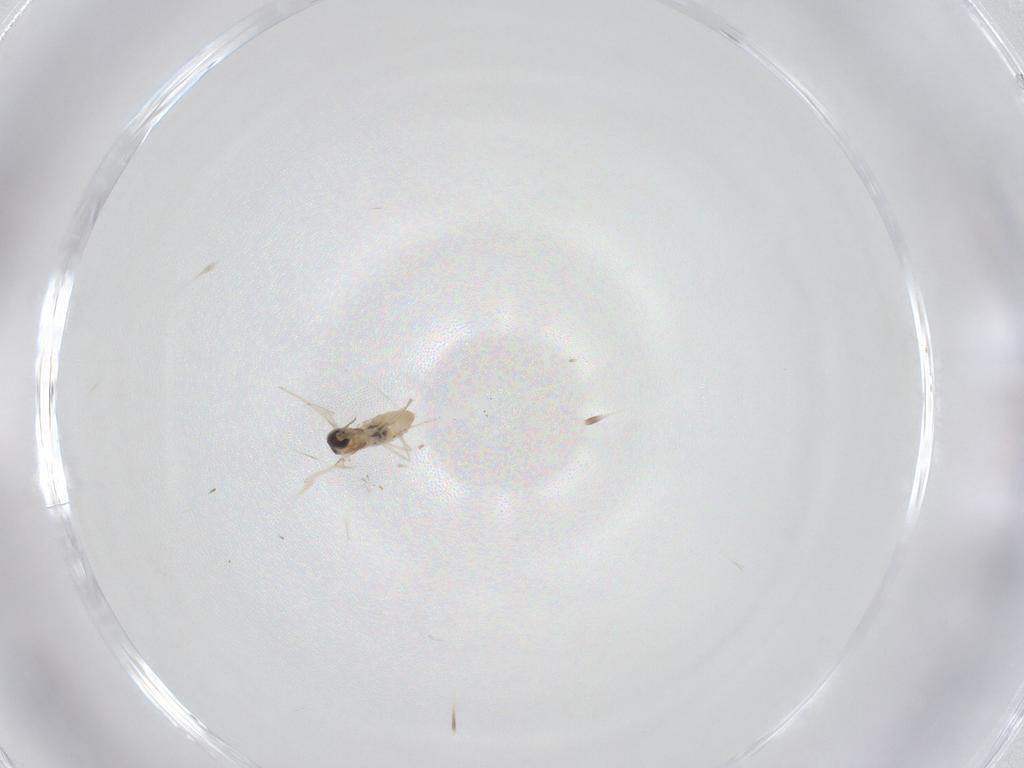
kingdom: Animalia
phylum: Arthropoda
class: Insecta
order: Diptera
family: Cecidomyiidae
